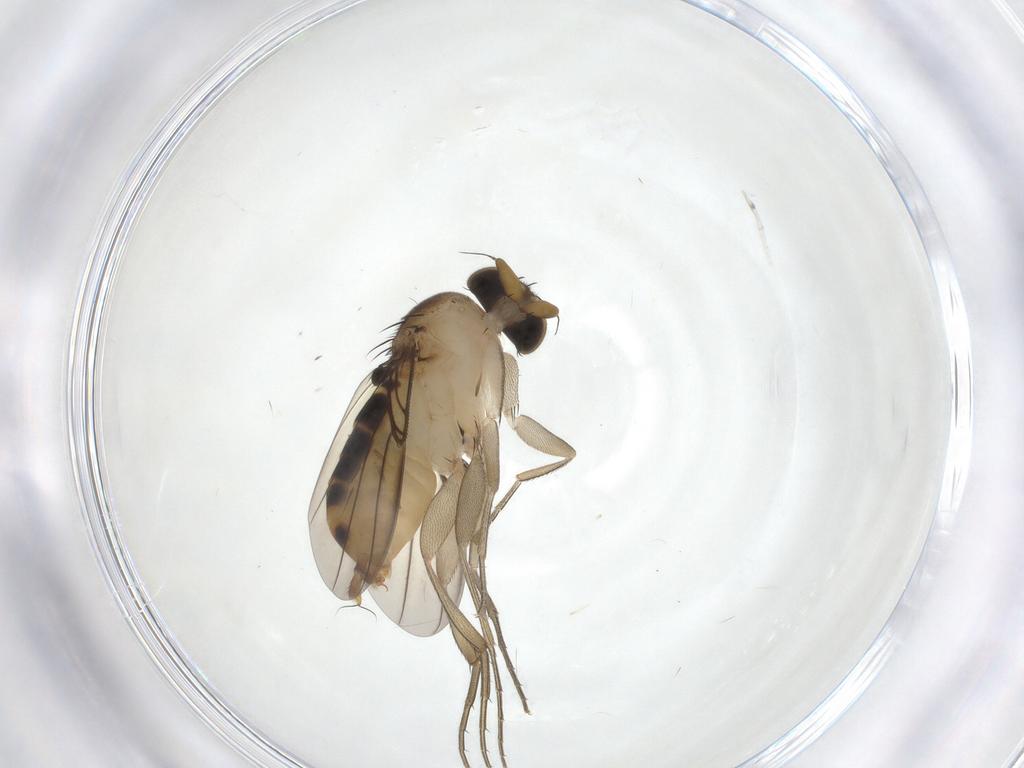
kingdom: Animalia
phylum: Arthropoda
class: Insecta
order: Diptera
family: Phoridae
